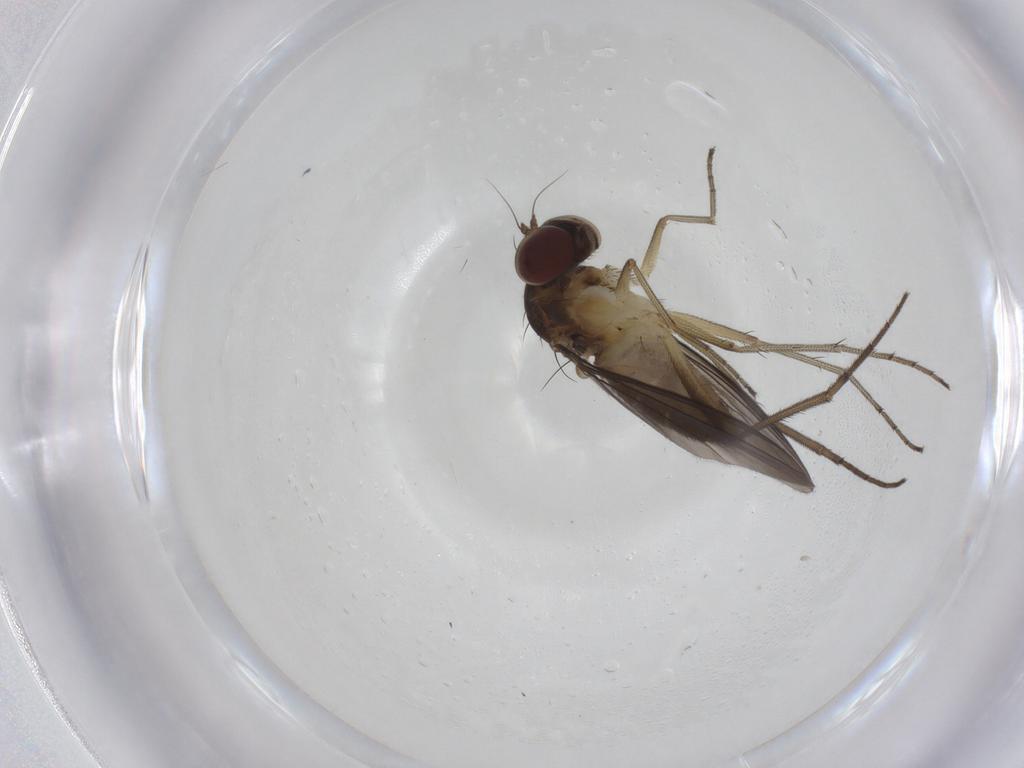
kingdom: Animalia
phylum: Arthropoda
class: Insecta
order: Diptera
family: Dolichopodidae
